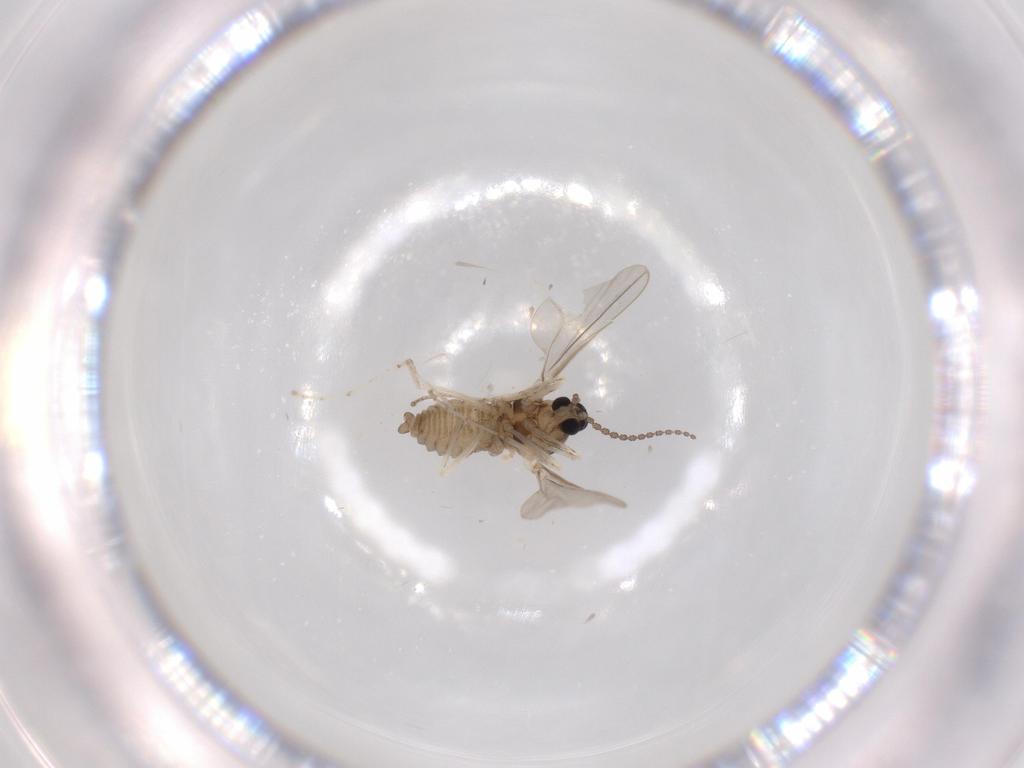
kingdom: Animalia
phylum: Arthropoda
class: Insecta
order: Diptera
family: Cecidomyiidae
